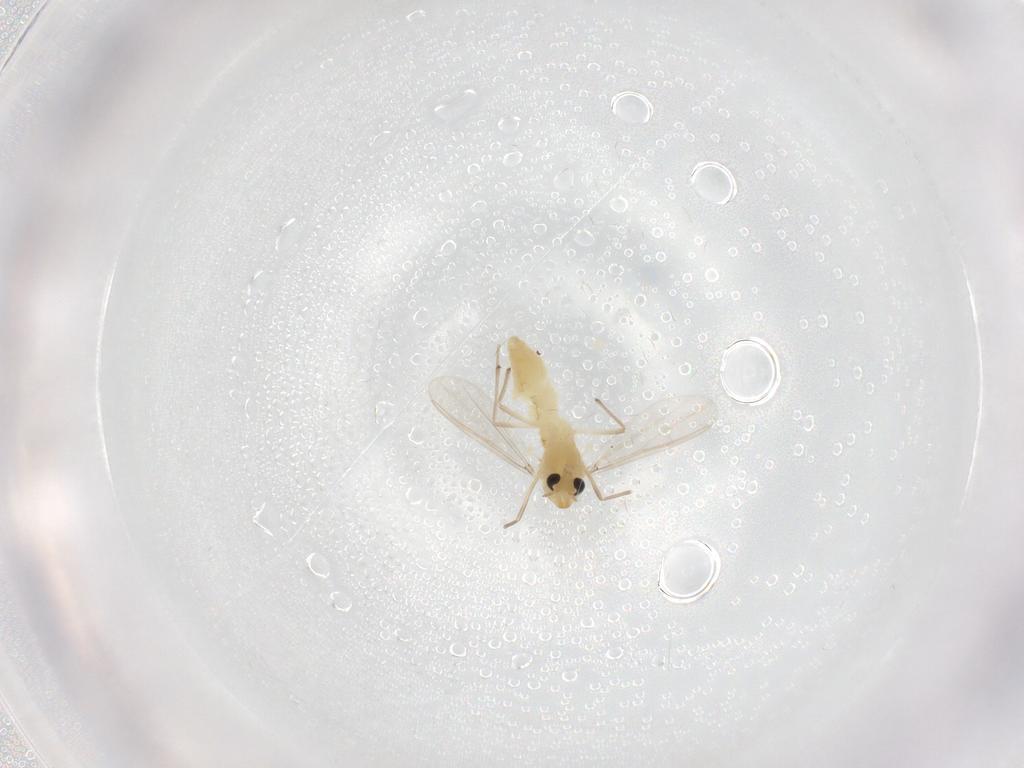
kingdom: Animalia
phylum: Arthropoda
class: Insecta
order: Diptera
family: Chironomidae
